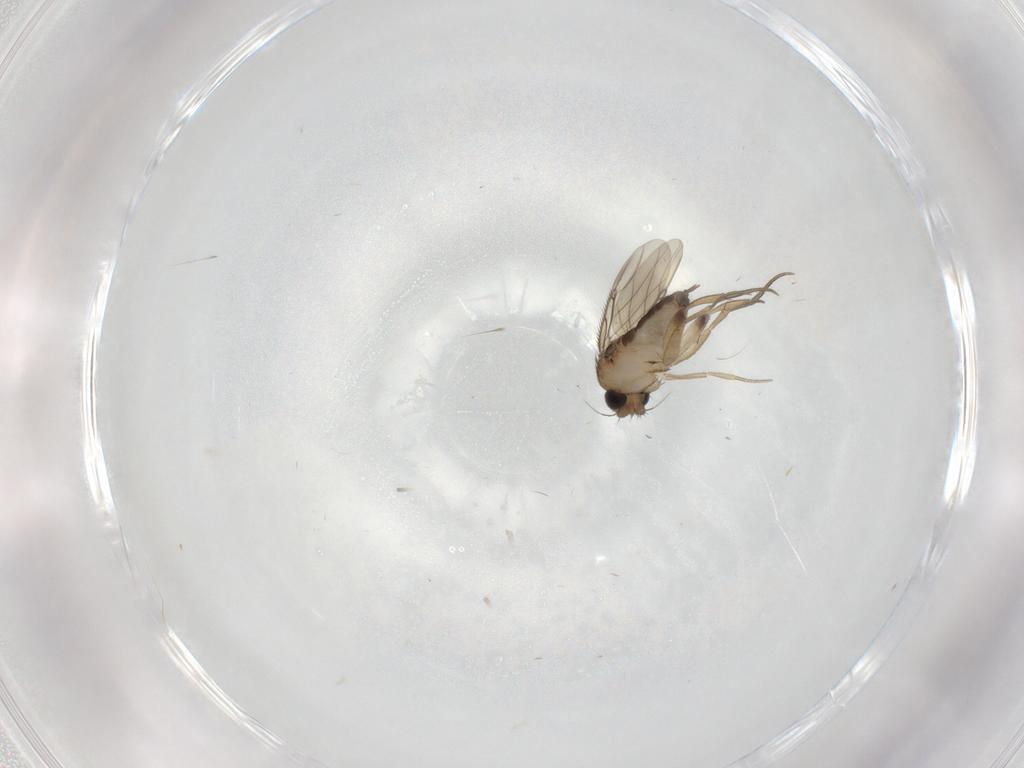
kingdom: Animalia
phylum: Arthropoda
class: Insecta
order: Diptera
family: Phoridae
